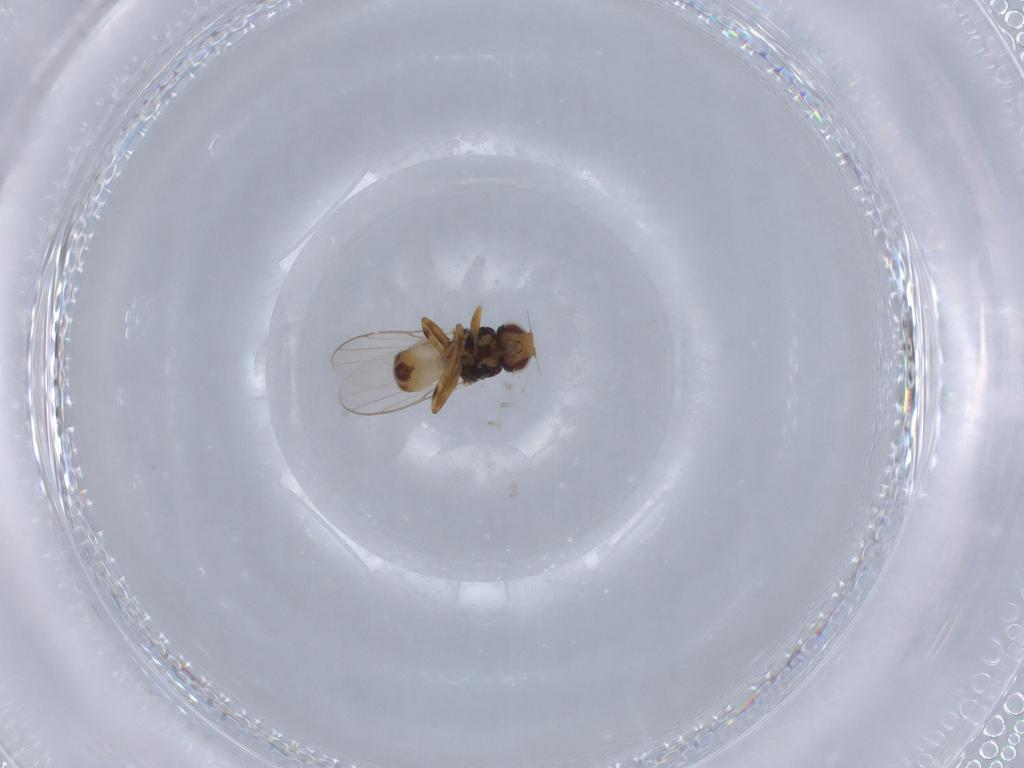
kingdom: Animalia
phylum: Arthropoda
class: Insecta
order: Diptera
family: Chloropidae
